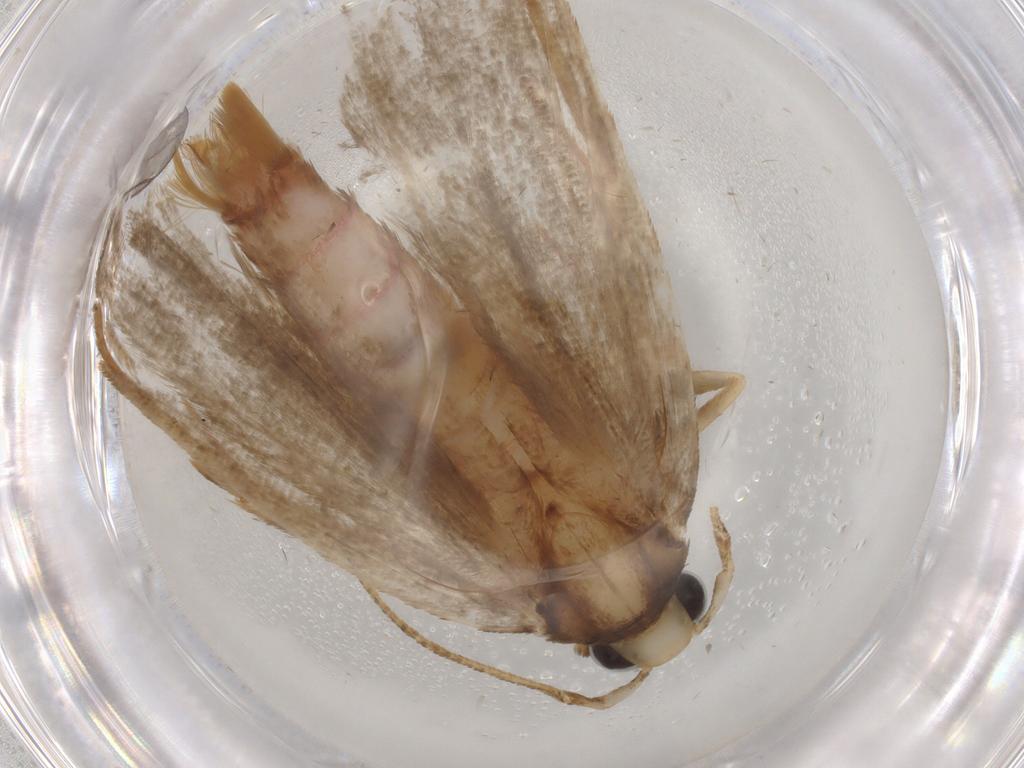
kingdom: Animalia
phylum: Arthropoda
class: Insecta
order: Lepidoptera
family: Autostichidae
